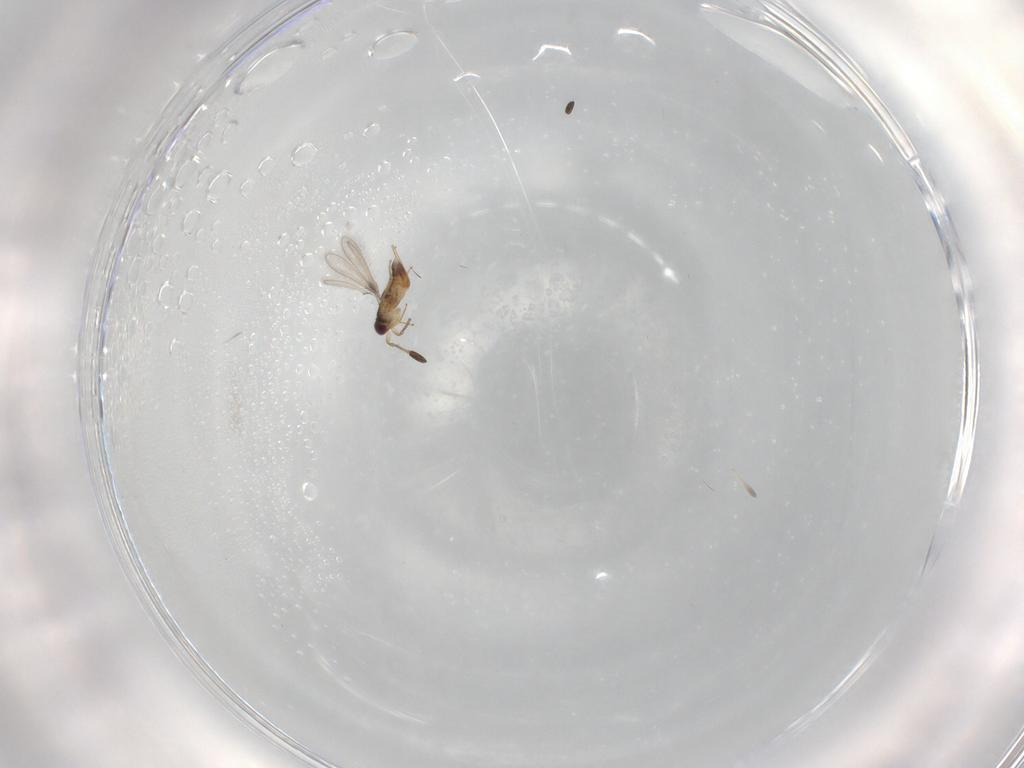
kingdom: Animalia
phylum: Arthropoda
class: Insecta
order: Hymenoptera
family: Mymaridae
